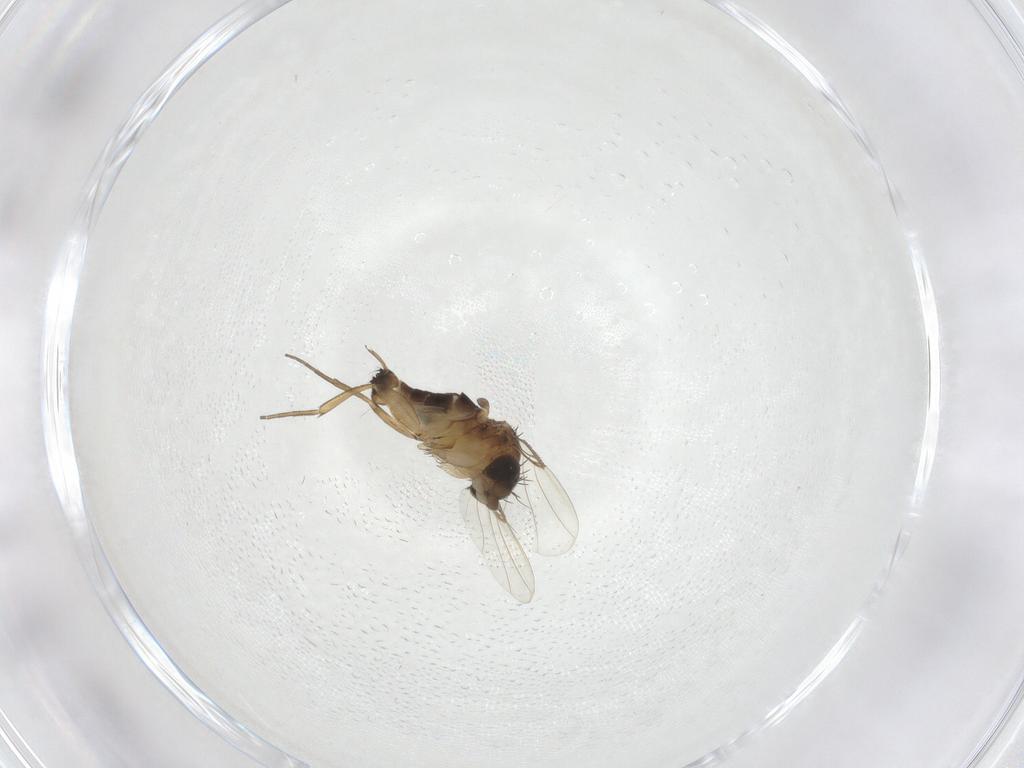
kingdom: Animalia
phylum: Arthropoda
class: Insecta
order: Diptera
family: Phoridae
